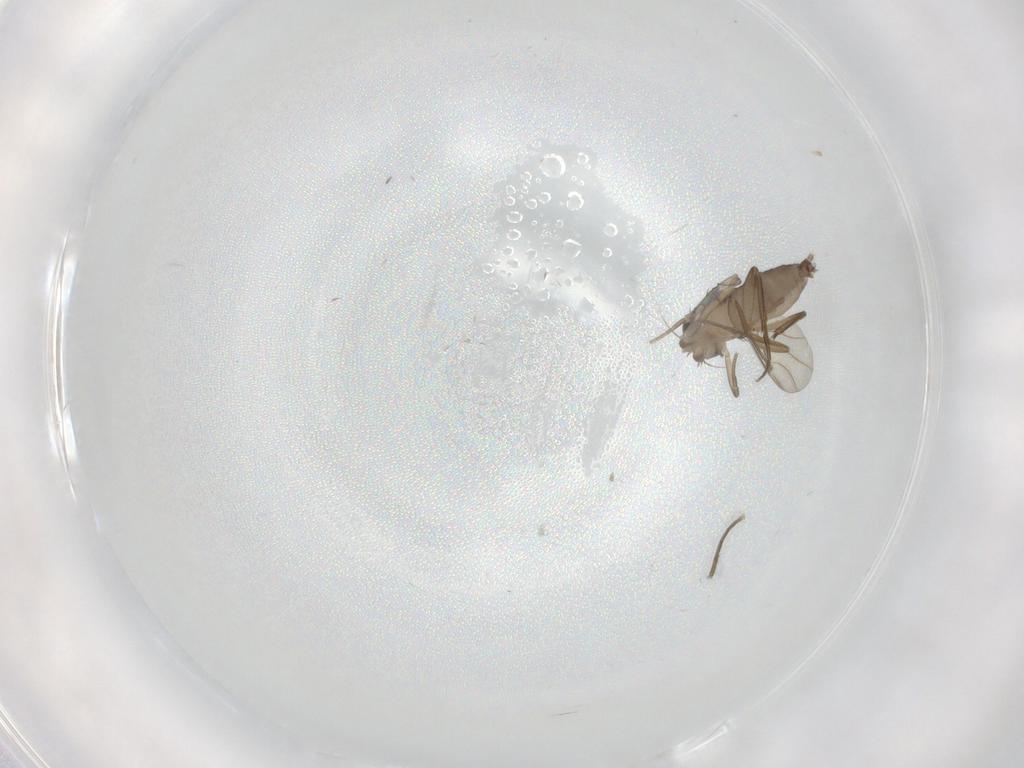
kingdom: Animalia
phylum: Arthropoda
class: Insecta
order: Diptera
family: Cecidomyiidae
